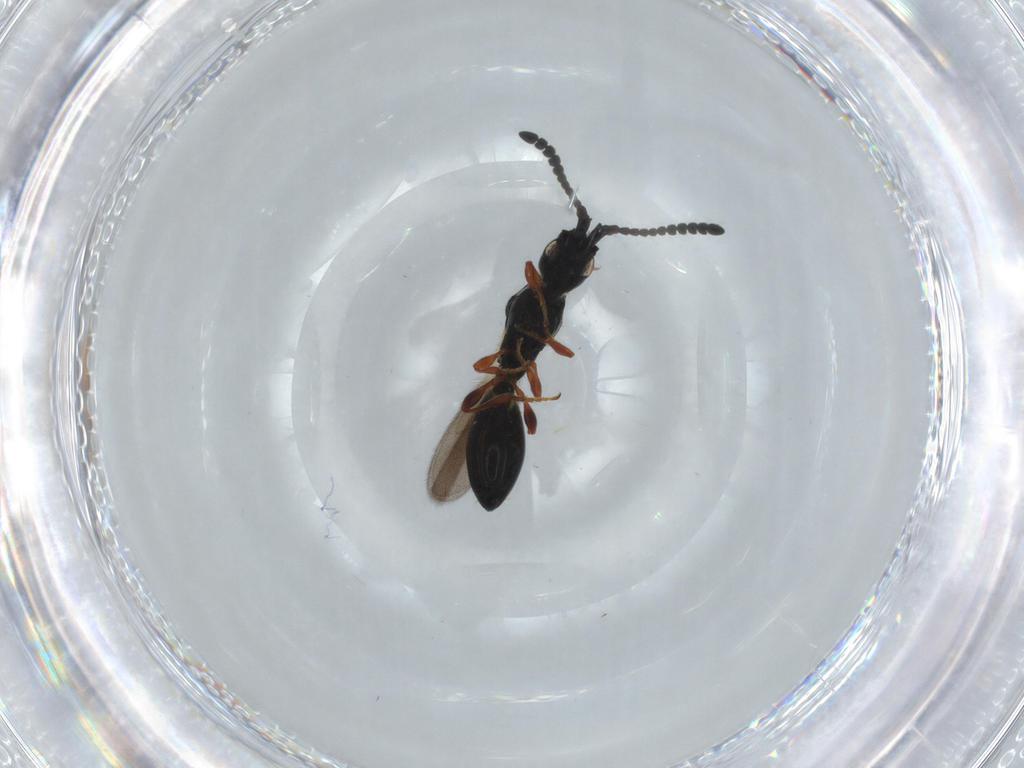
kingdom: Animalia
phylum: Arthropoda
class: Insecta
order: Hymenoptera
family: Diapriidae
